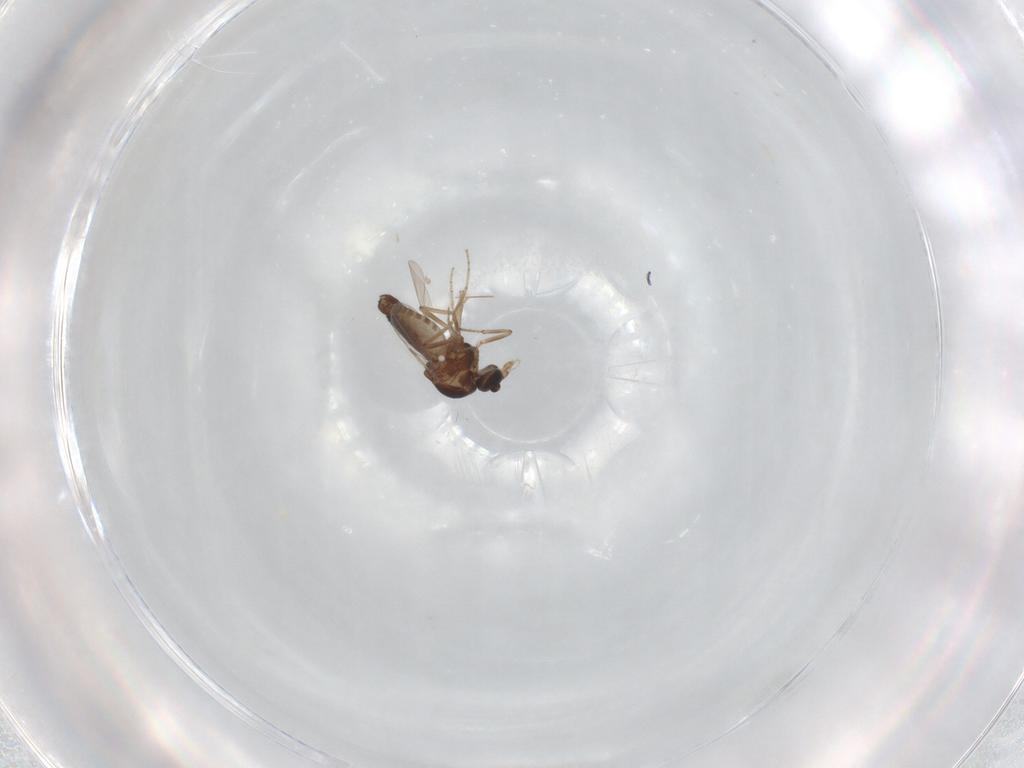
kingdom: Animalia
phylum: Arthropoda
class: Insecta
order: Diptera
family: Ceratopogonidae
